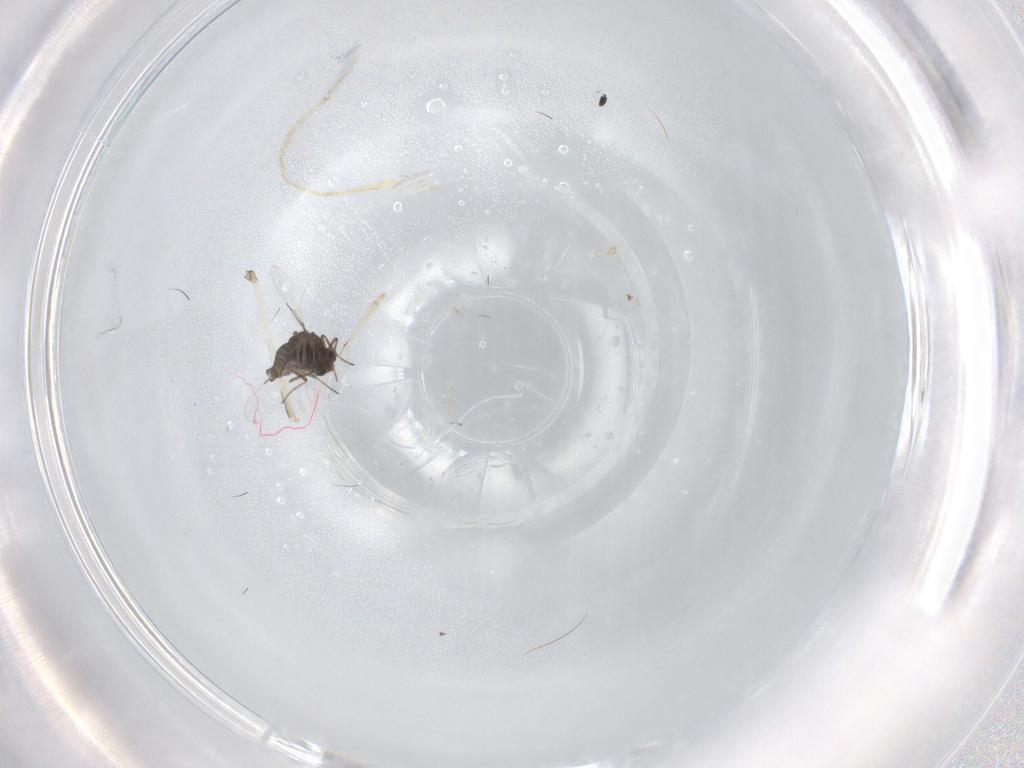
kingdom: Animalia
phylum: Arthropoda
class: Insecta
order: Diptera
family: Ceratopogonidae
